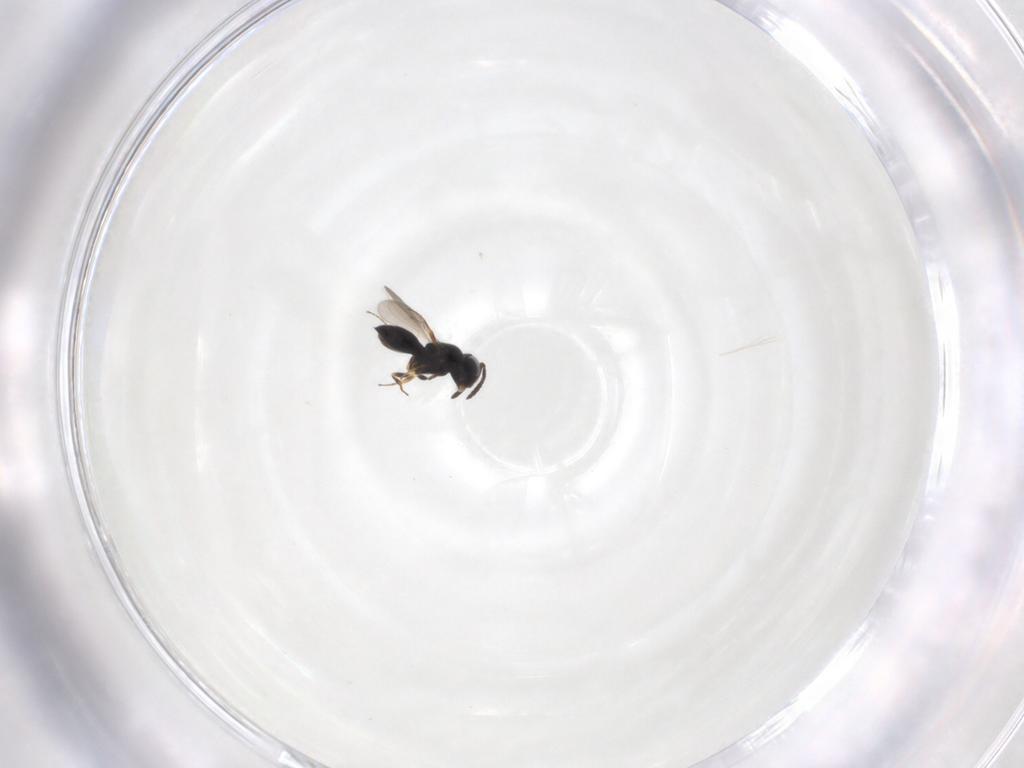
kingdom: Animalia
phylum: Arthropoda
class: Insecta
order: Hymenoptera
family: Scelionidae
